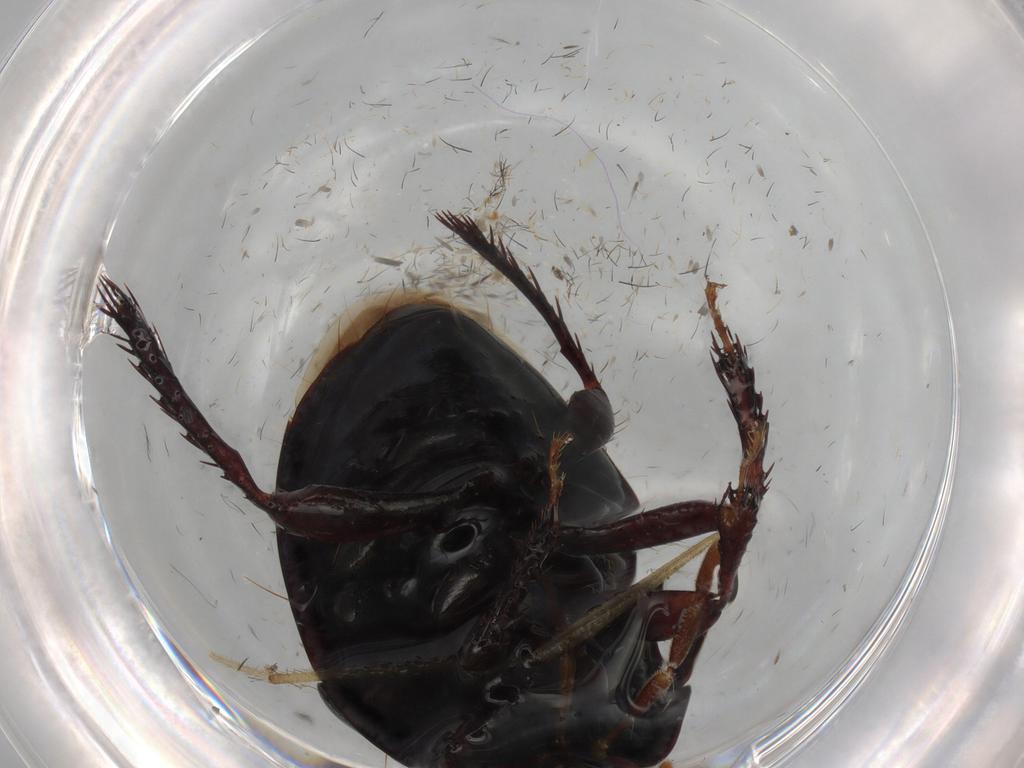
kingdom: Animalia
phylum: Arthropoda
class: Insecta
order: Hemiptera
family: Cydnidae
